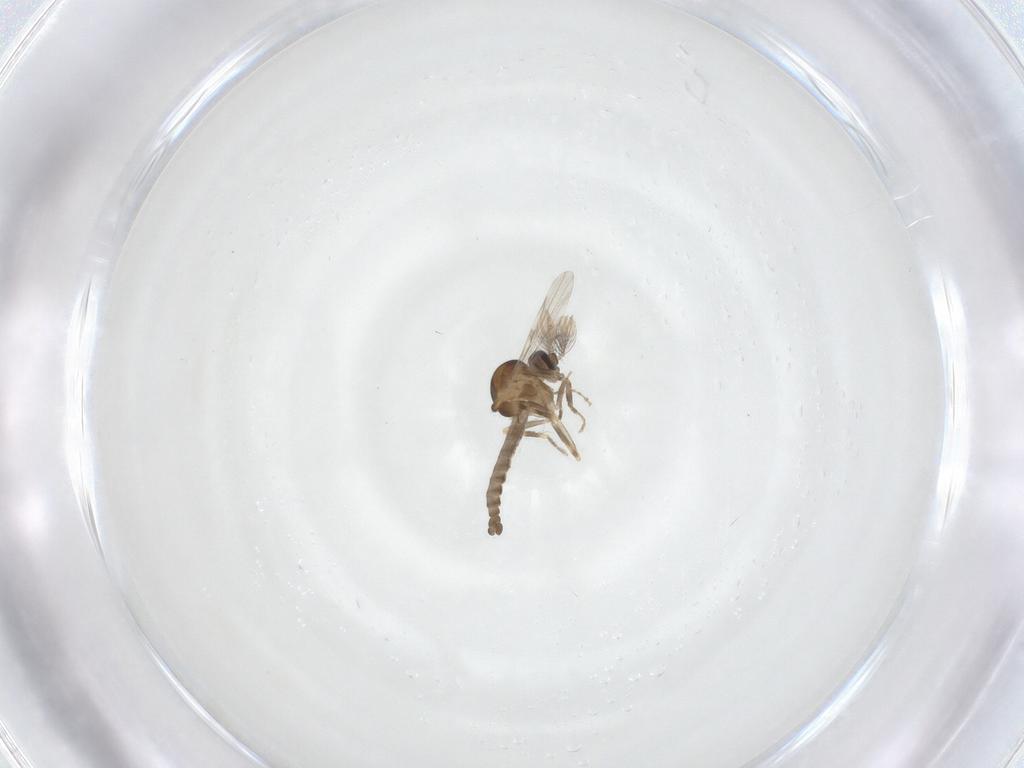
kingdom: Animalia
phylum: Arthropoda
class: Insecta
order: Diptera
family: Ceratopogonidae
